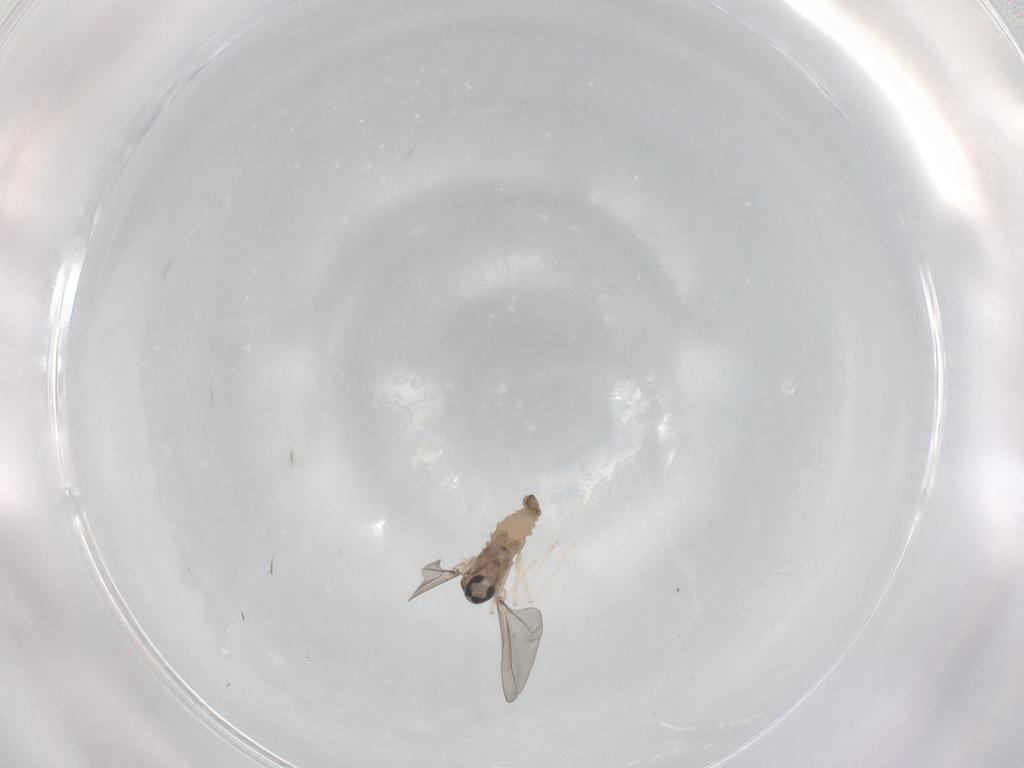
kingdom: Animalia
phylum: Arthropoda
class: Insecta
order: Diptera
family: Cecidomyiidae
